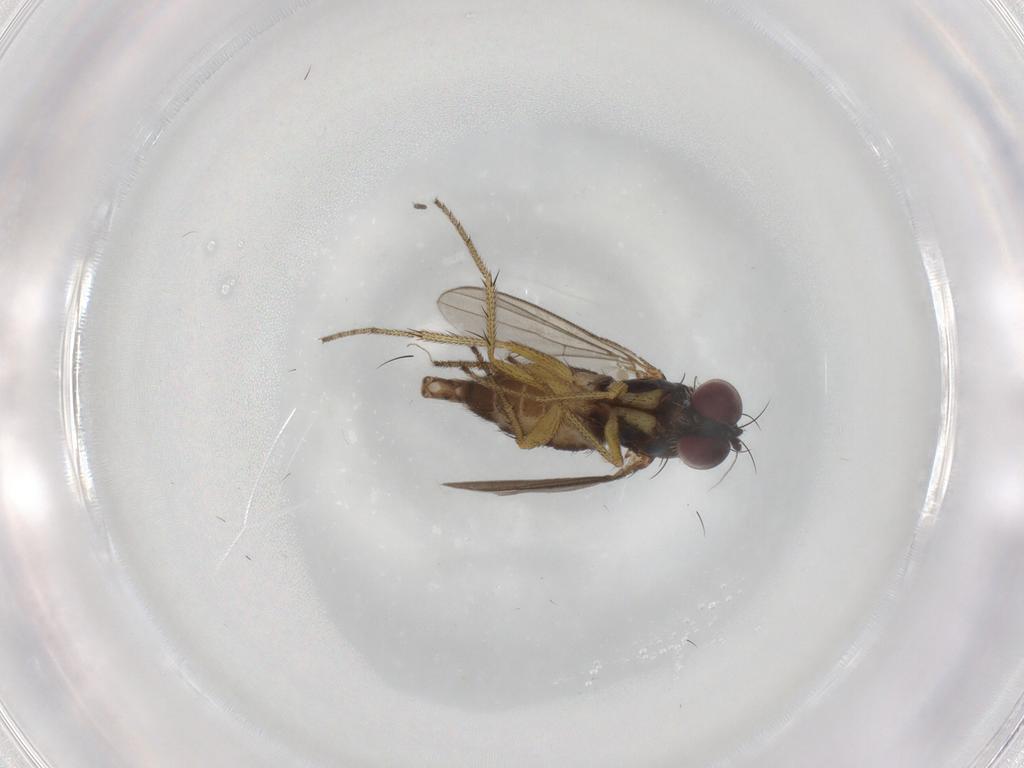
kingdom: Animalia
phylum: Arthropoda
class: Insecta
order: Diptera
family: Dolichopodidae
